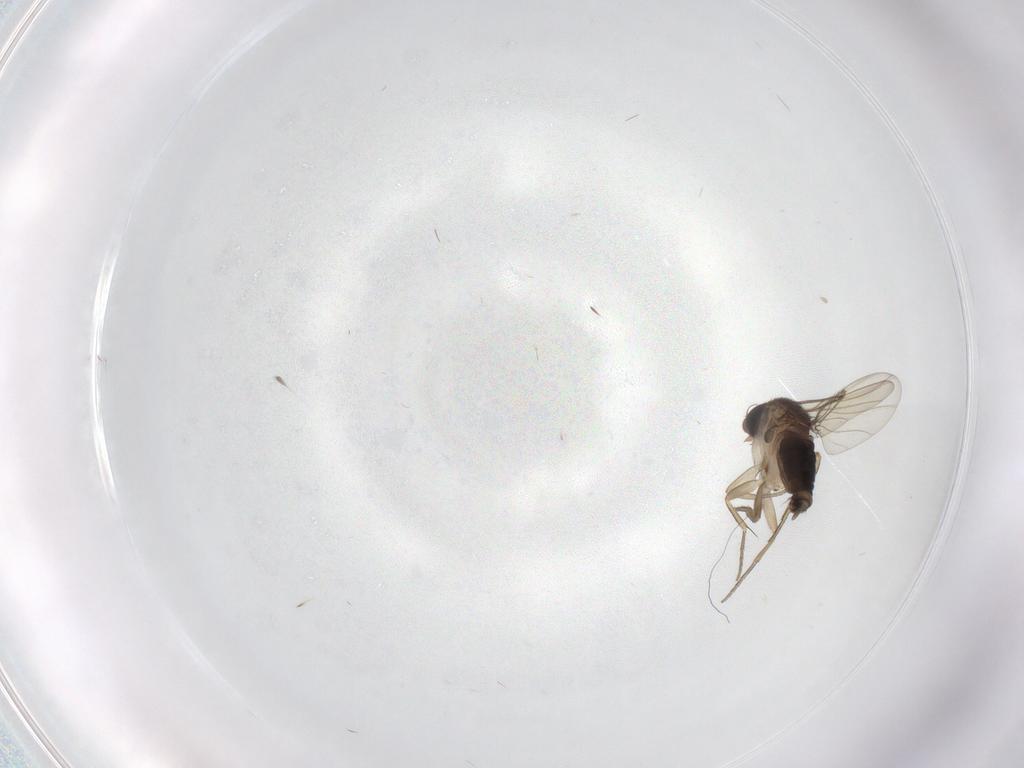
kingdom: Animalia
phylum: Arthropoda
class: Insecta
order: Diptera
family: Phoridae
